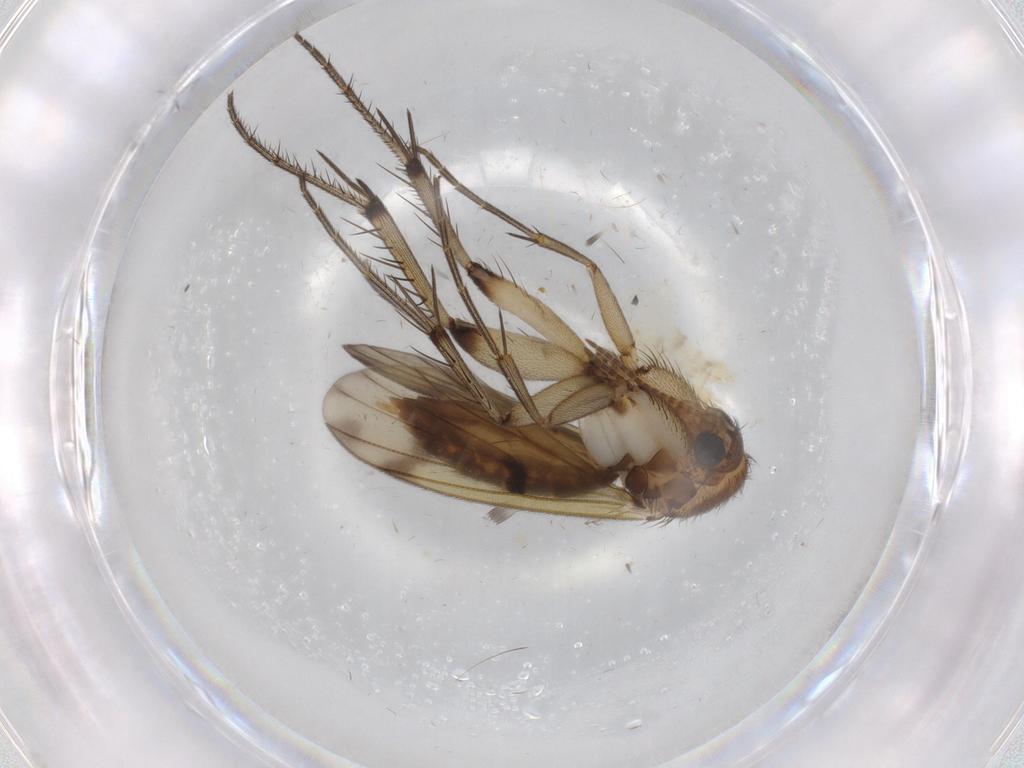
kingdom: Animalia
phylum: Arthropoda
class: Insecta
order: Diptera
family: Mycetophilidae
